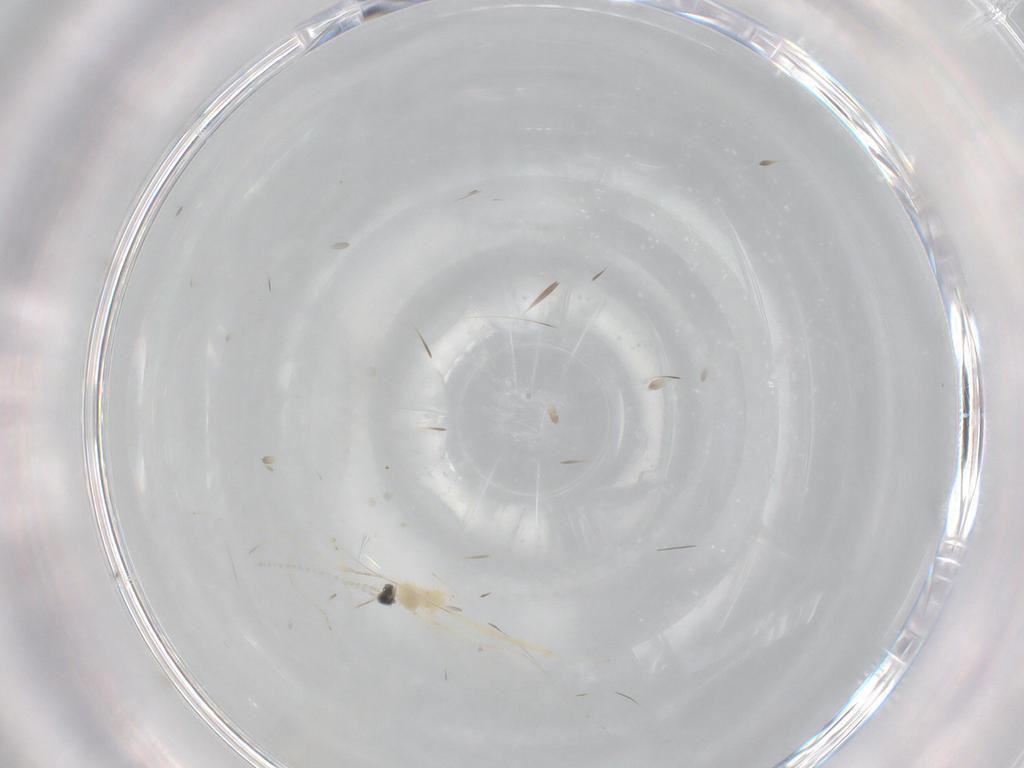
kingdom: Animalia
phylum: Arthropoda
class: Insecta
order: Diptera
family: Cecidomyiidae
